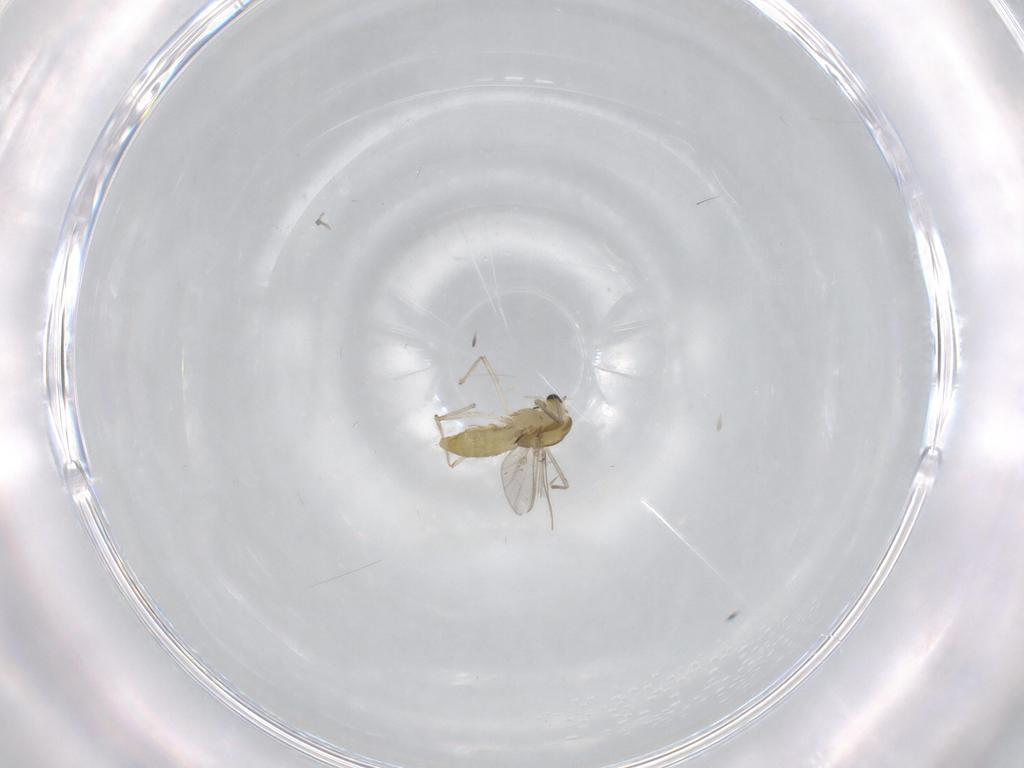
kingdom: Animalia
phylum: Arthropoda
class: Insecta
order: Diptera
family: Chironomidae
